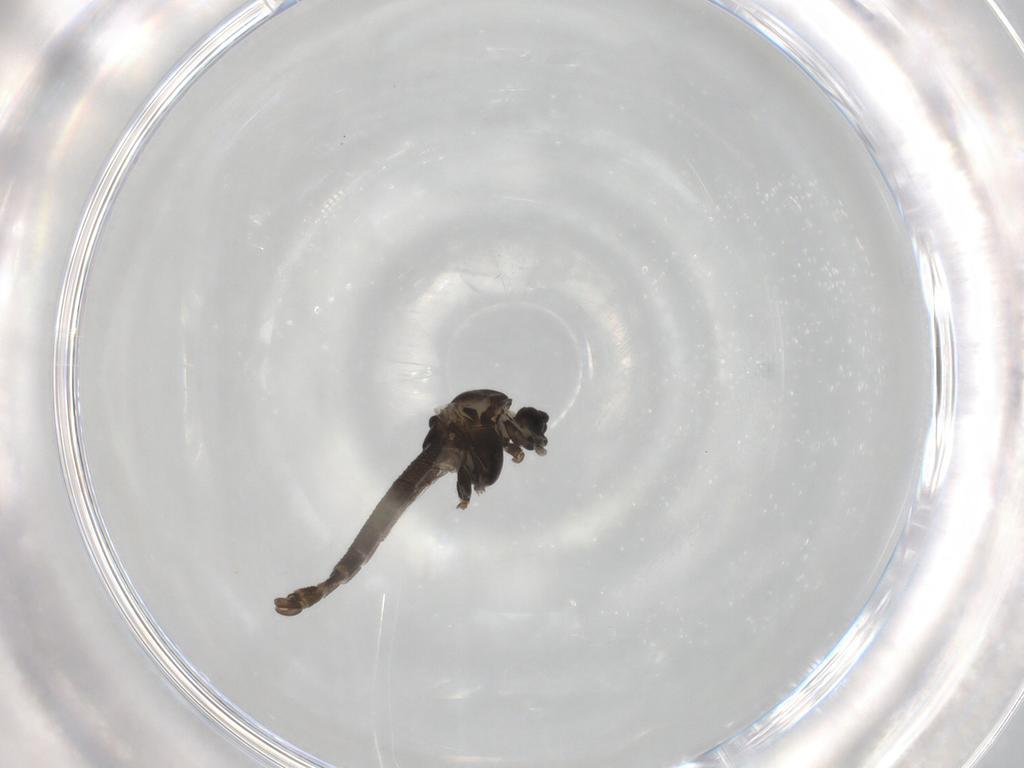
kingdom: Animalia
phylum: Arthropoda
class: Insecta
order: Diptera
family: Chironomidae
